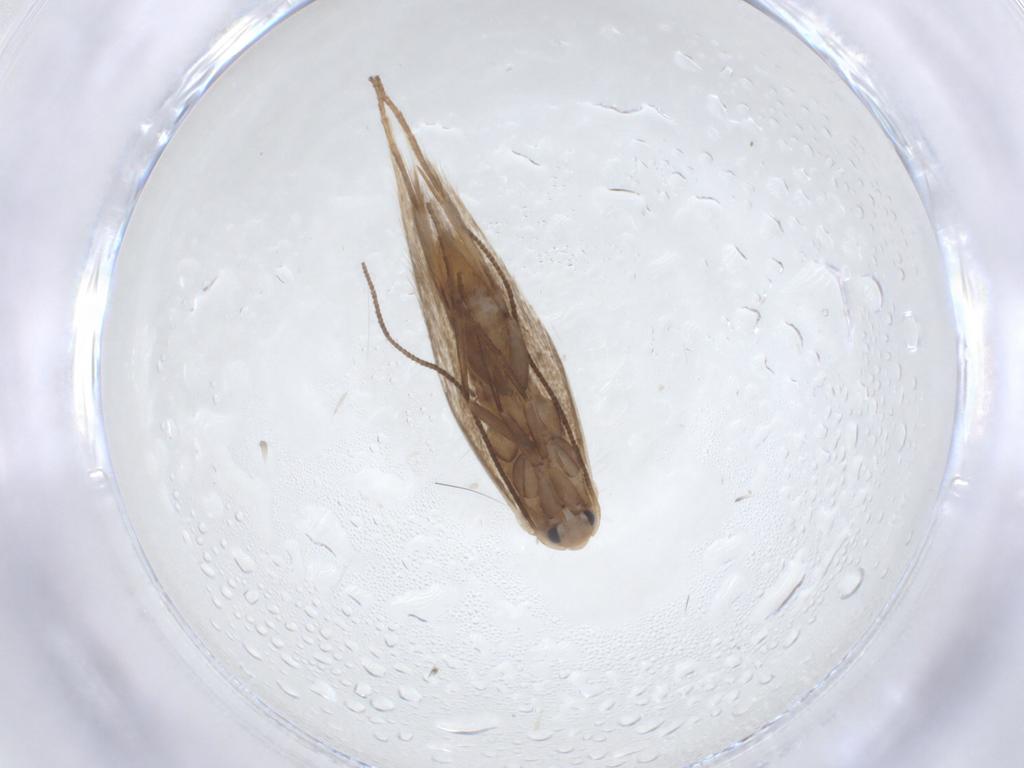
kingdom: Animalia
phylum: Arthropoda
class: Insecta
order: Lepidoptera
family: Bucculatricidae
